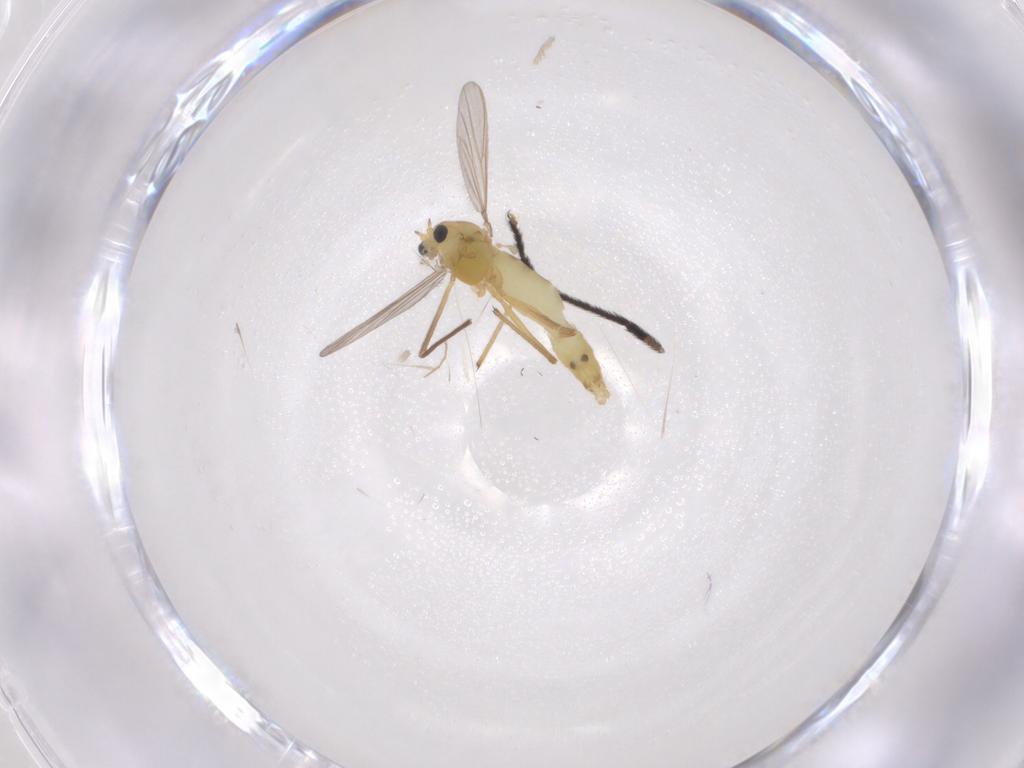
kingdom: Animalia
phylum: Arthropoda
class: Insecta
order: Diptera
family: Chironomidae
